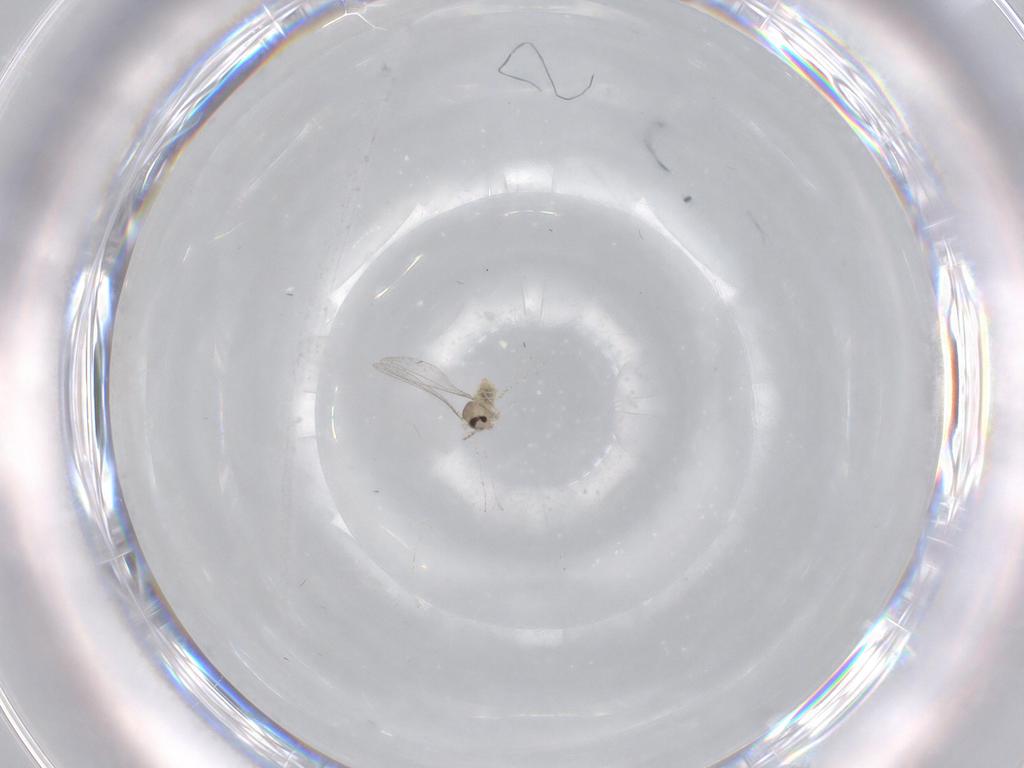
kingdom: Animalia
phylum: Arthropoda
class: Insecta
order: Diptera
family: Cecidomyiidae
